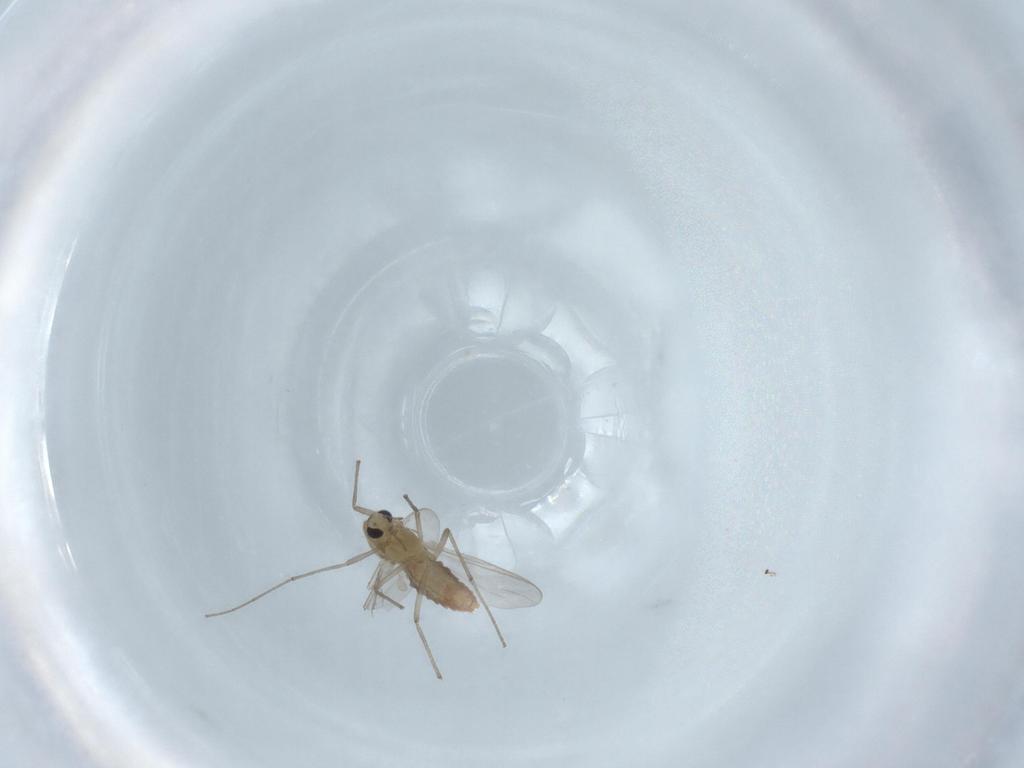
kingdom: Animalia
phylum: Arthropoda
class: Insecta
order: Diptera
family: Chironomidae
